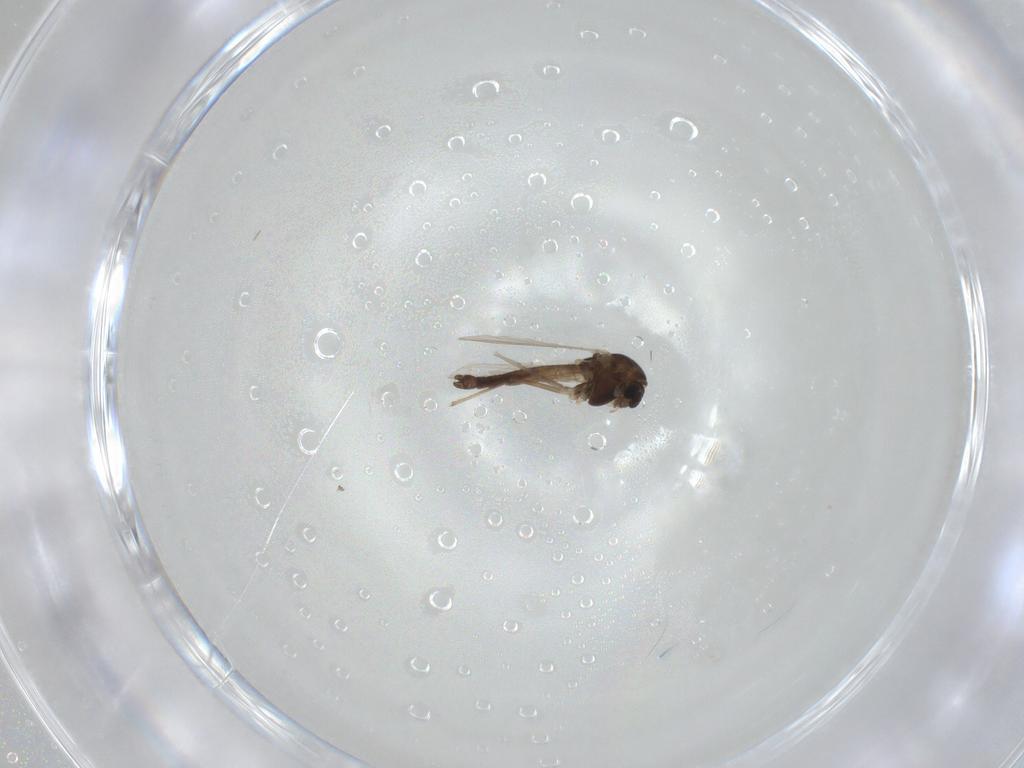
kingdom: Animalia
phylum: Arthropoda
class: Insecta
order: Diptera
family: Chironomidae
